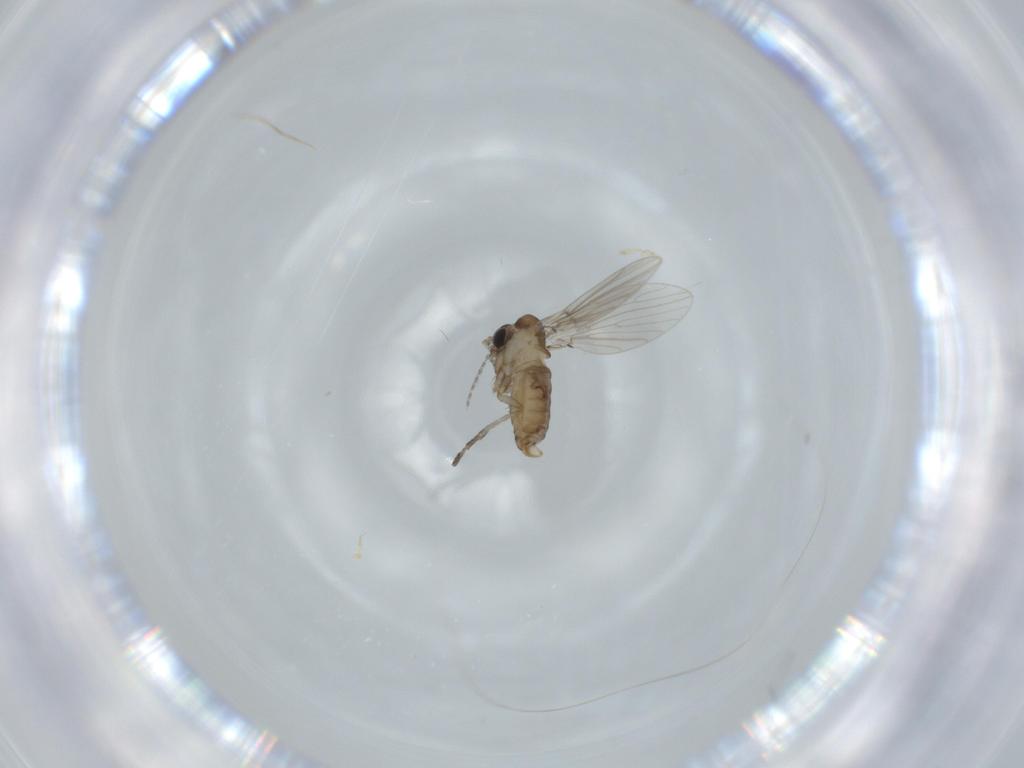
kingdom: Animalia
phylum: Arthropoda
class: Insecta
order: Diptera
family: Psychodidae
